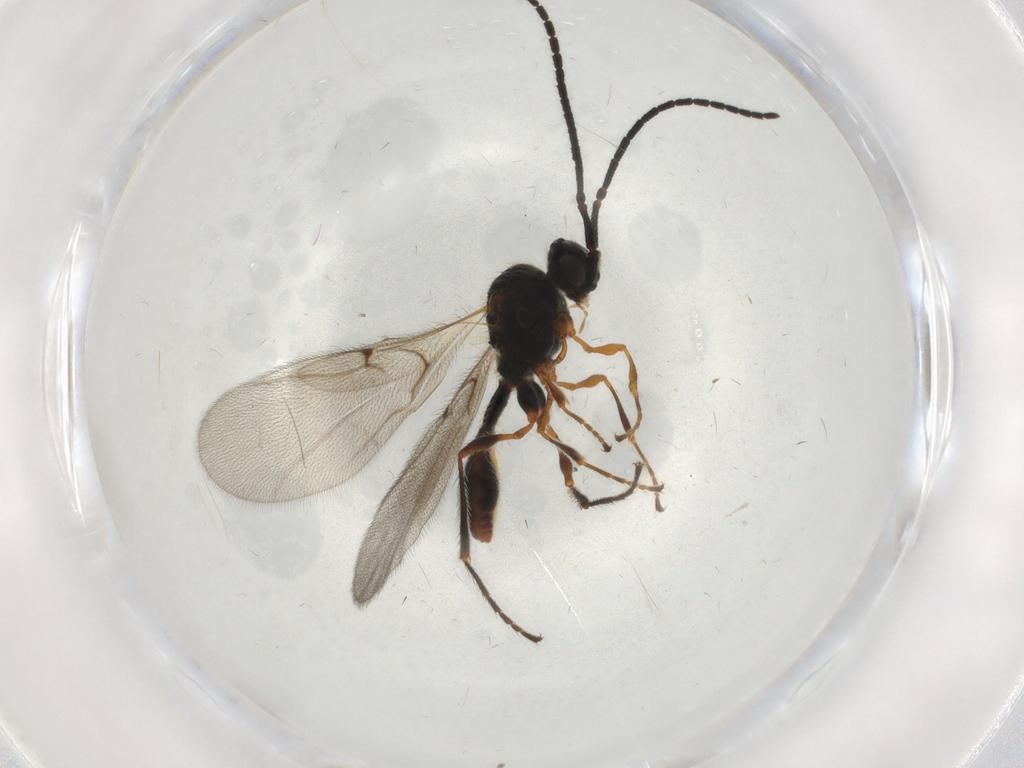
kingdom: Animalia
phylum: Arthropoda
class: Insecta
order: Hymenoptera
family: Diapriidae
